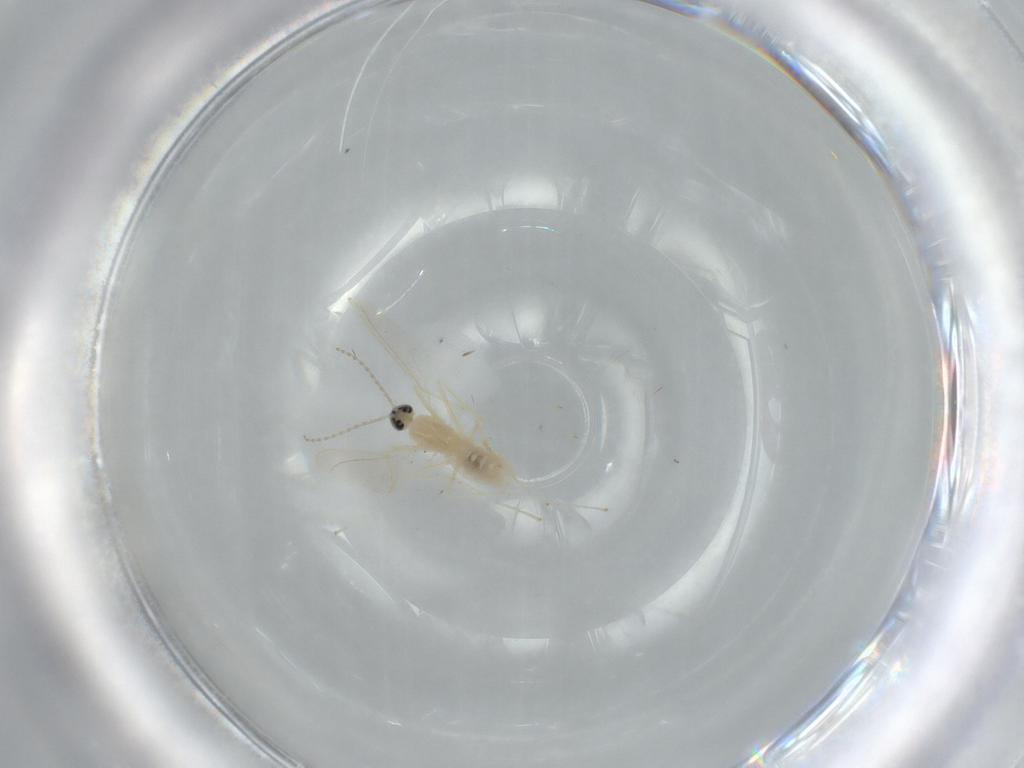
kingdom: Animalia
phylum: Arthropoda
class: Insecta
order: Diptera
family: Cecidomyiidae
